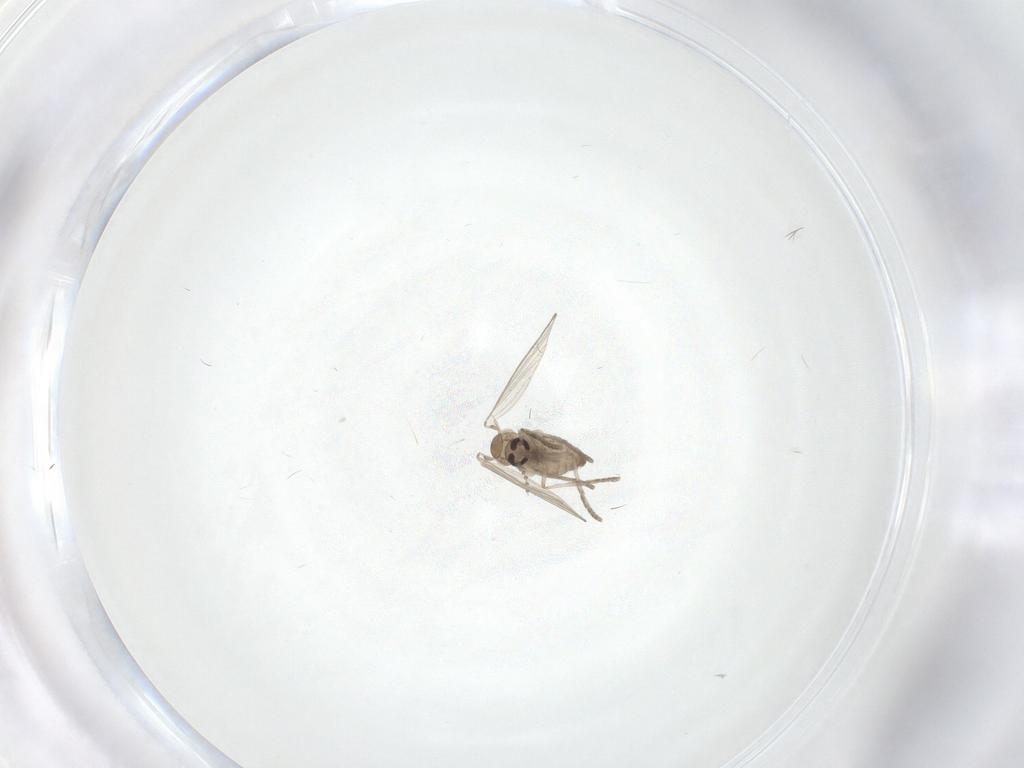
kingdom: Animalia
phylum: Arthropoda
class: Insecta
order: Diptera
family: Psychodidae
